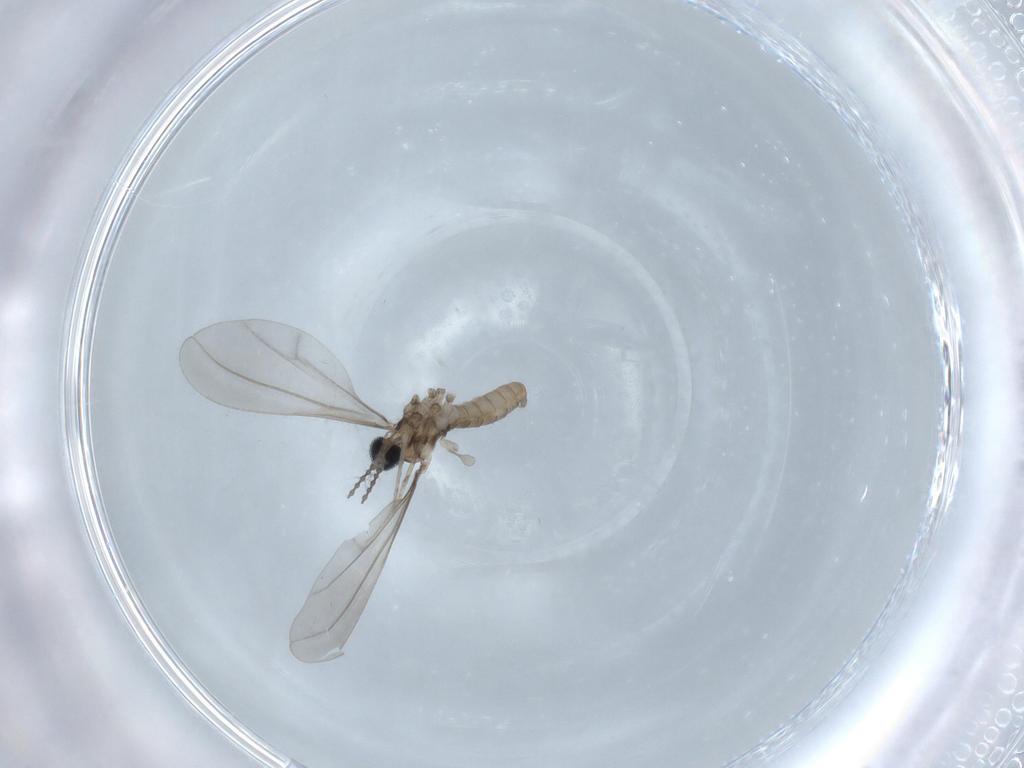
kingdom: Animalia
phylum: Arthropoda
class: Insecta
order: Diptera
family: Cecidomyiidae
